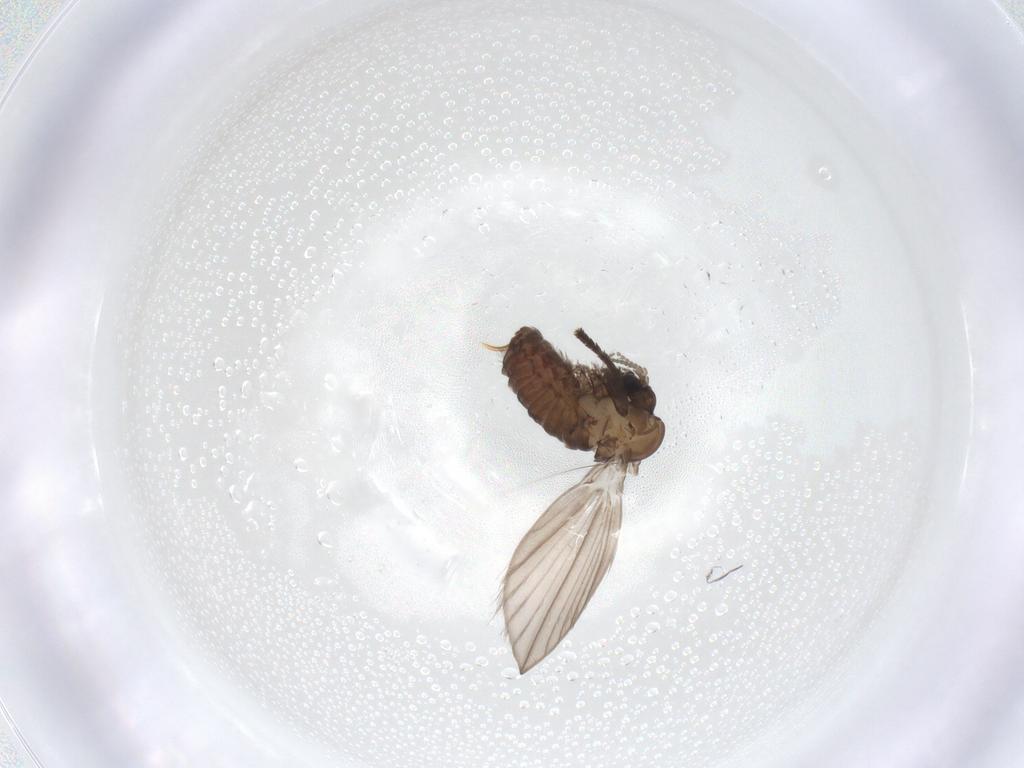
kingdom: Animalia
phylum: Arthropoda
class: Insecta
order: Diptera
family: Psychodidae
